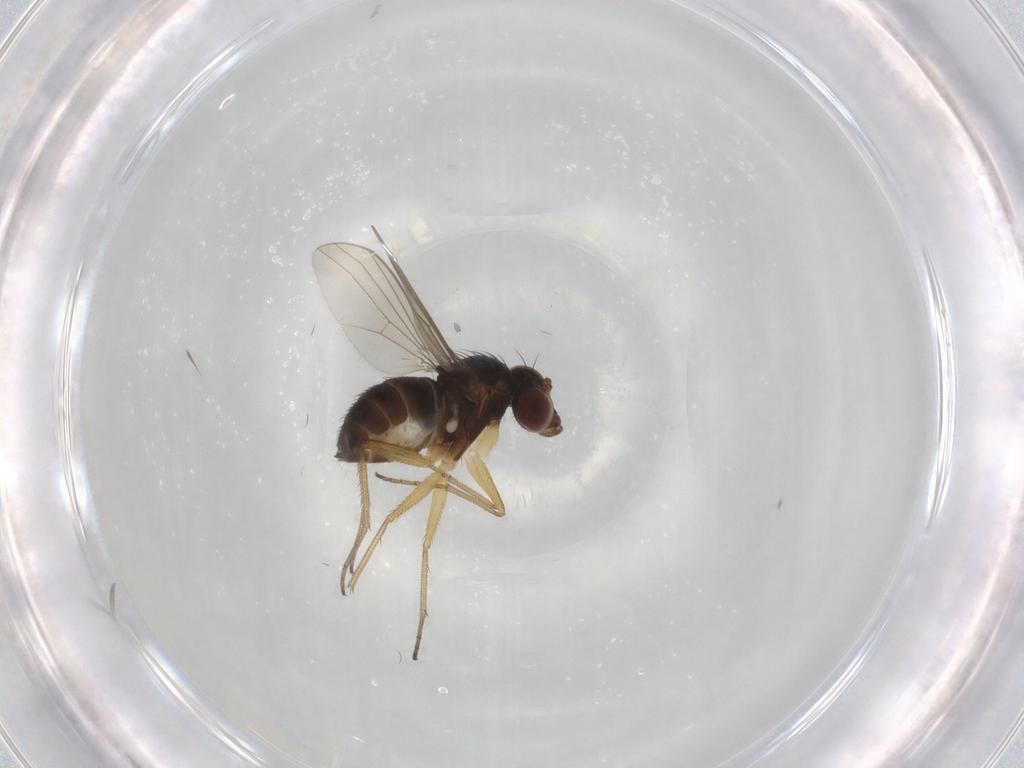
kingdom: Animalia
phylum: Arthropoda
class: Insecta
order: Diptera
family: Dolichopodidae
